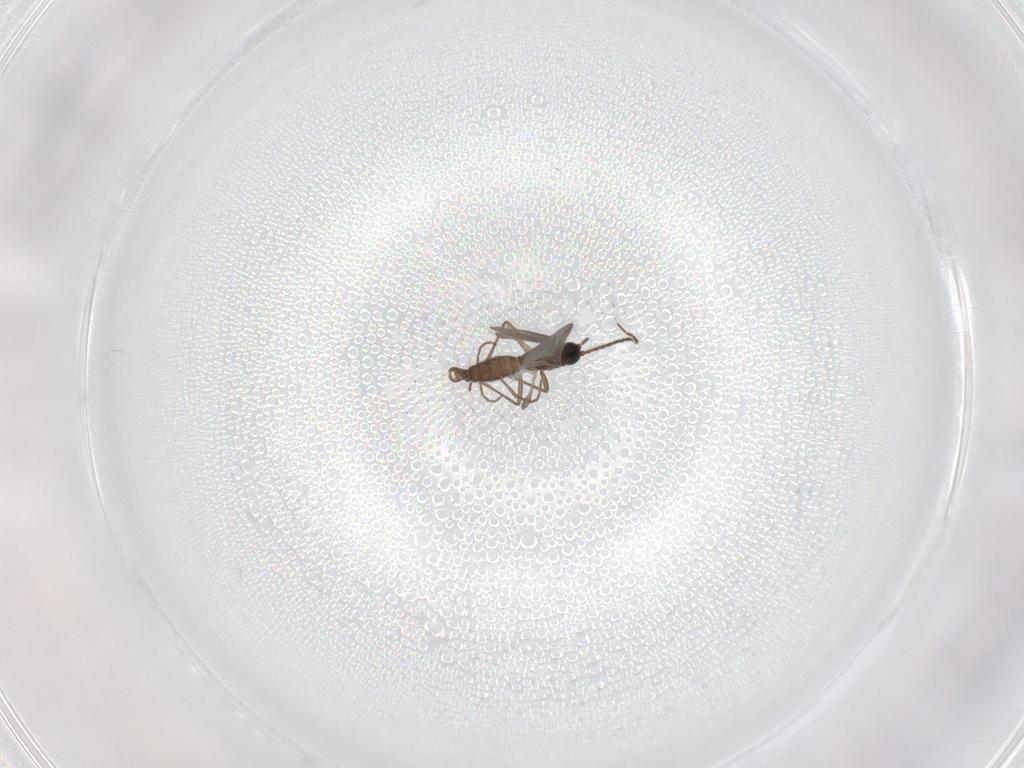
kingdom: Animalia
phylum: Arthropoda
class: Insecta
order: Diptera
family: Sciaridae
